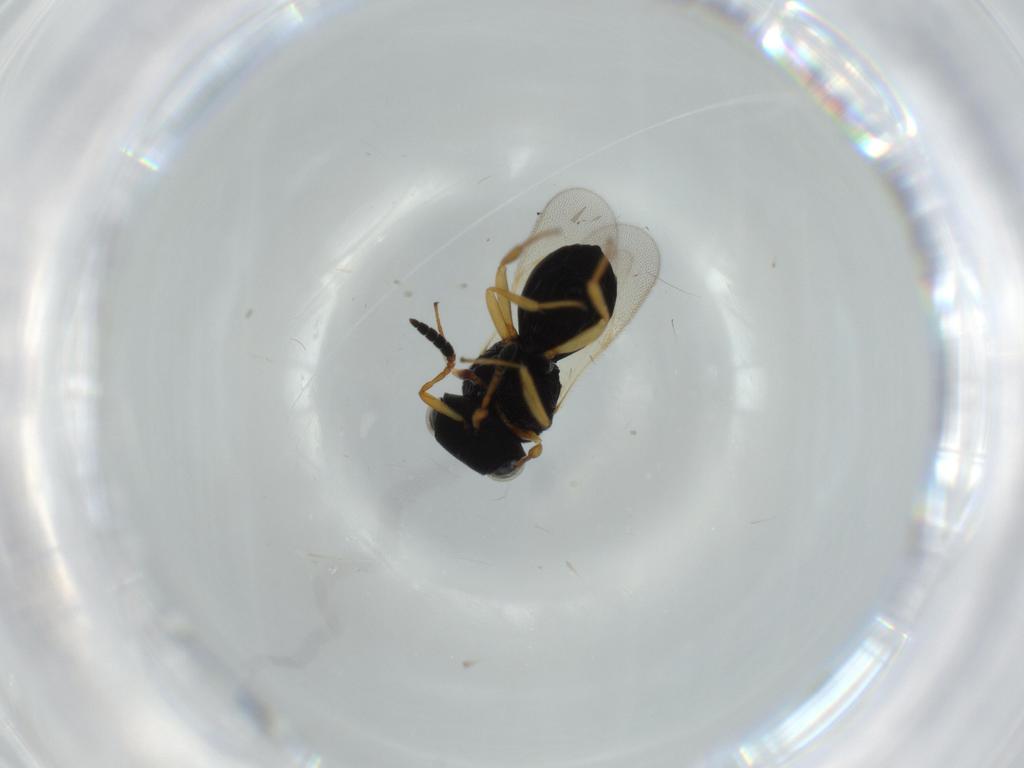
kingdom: Animalia
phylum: Arthropoda
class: Insecta
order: Hymenoptera
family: Scelionidae
